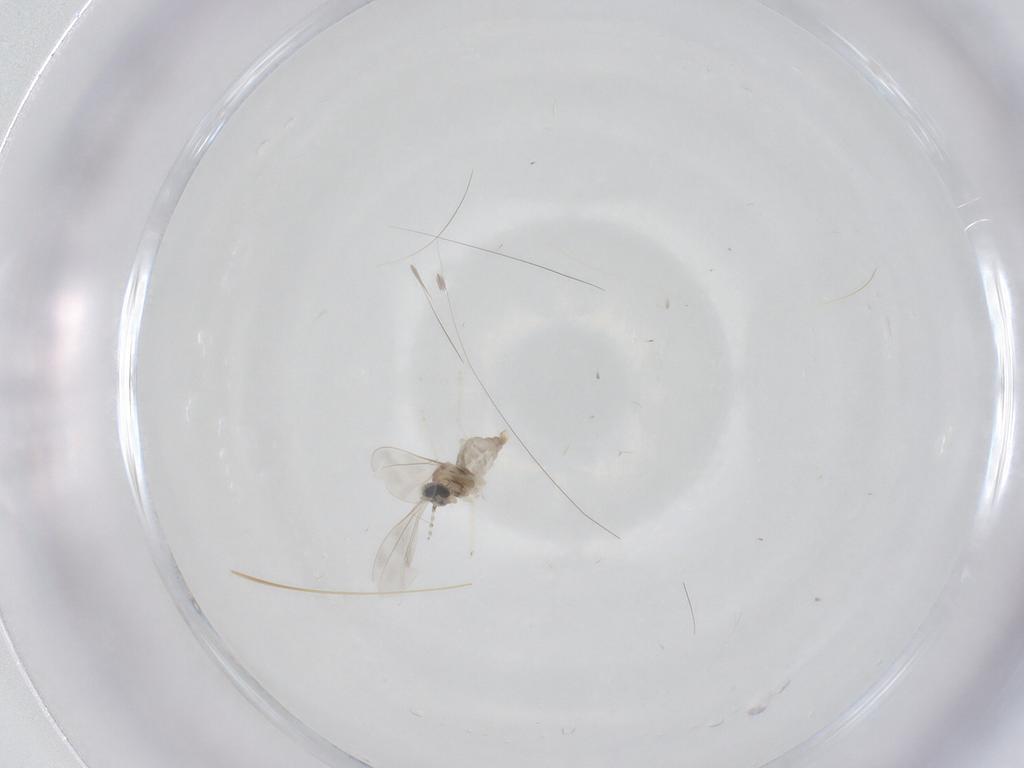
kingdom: Animalia
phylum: Arthropoda
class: Insecta
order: Diptera
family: Cecidomyiidae
